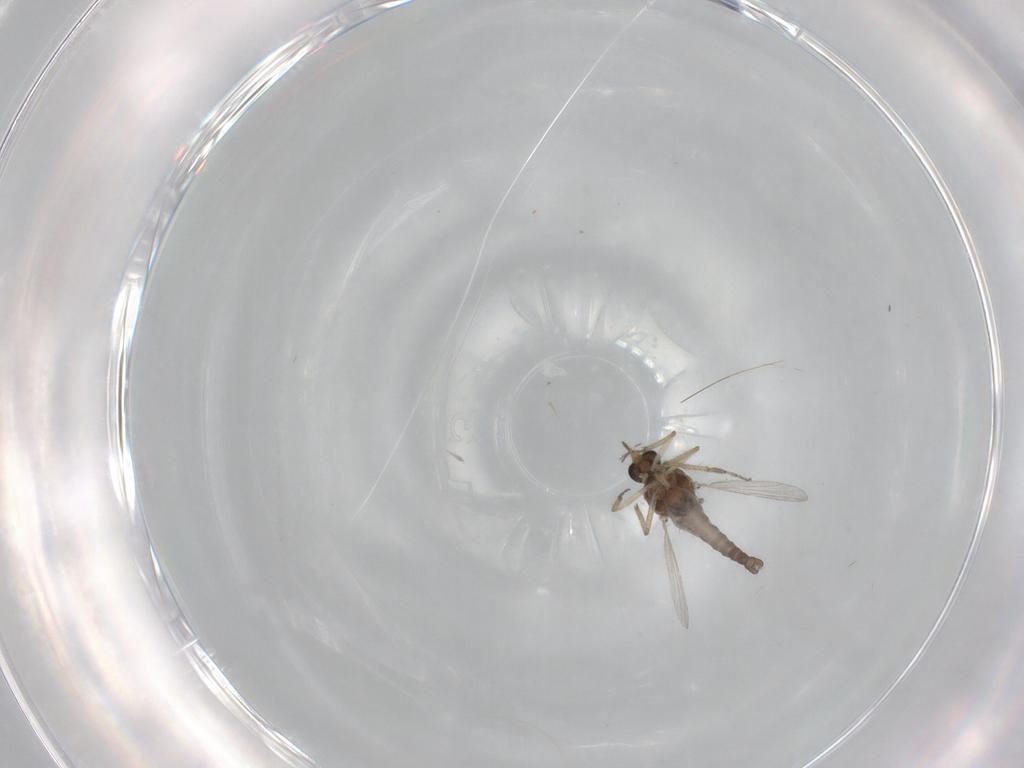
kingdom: Animalia
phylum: Arthropoda
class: Insecta
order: Diptera
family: Ceratopogonidae
